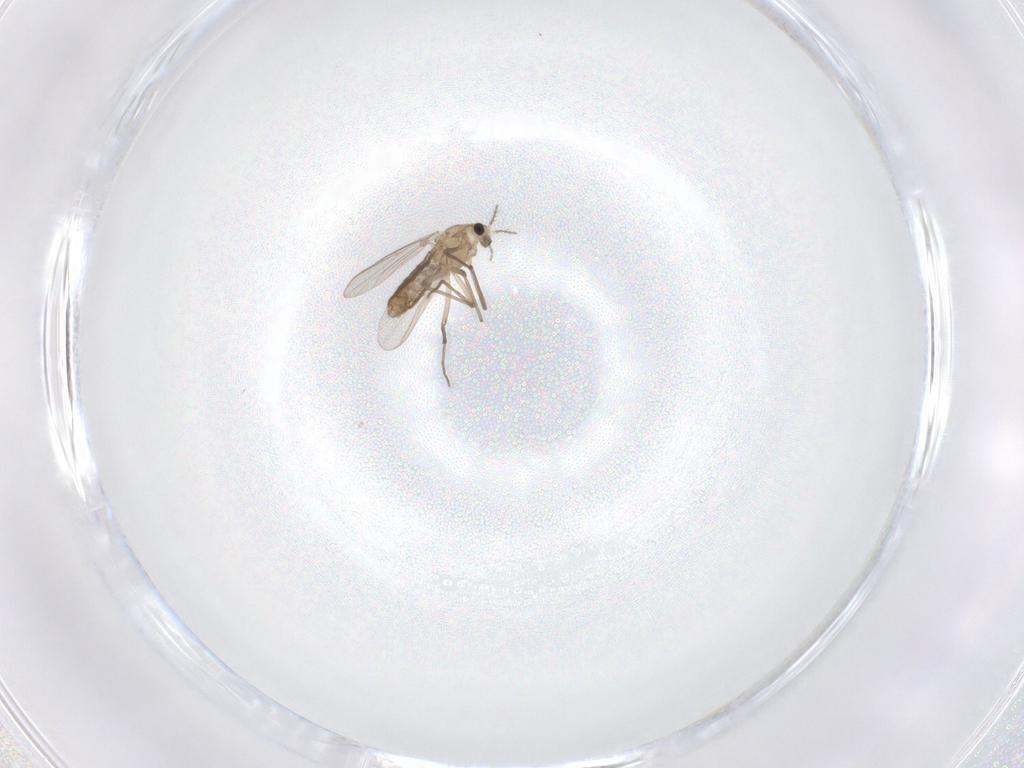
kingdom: Animalia
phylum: Arthropoda
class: Insecta
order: Diptera
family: Chironomidae
